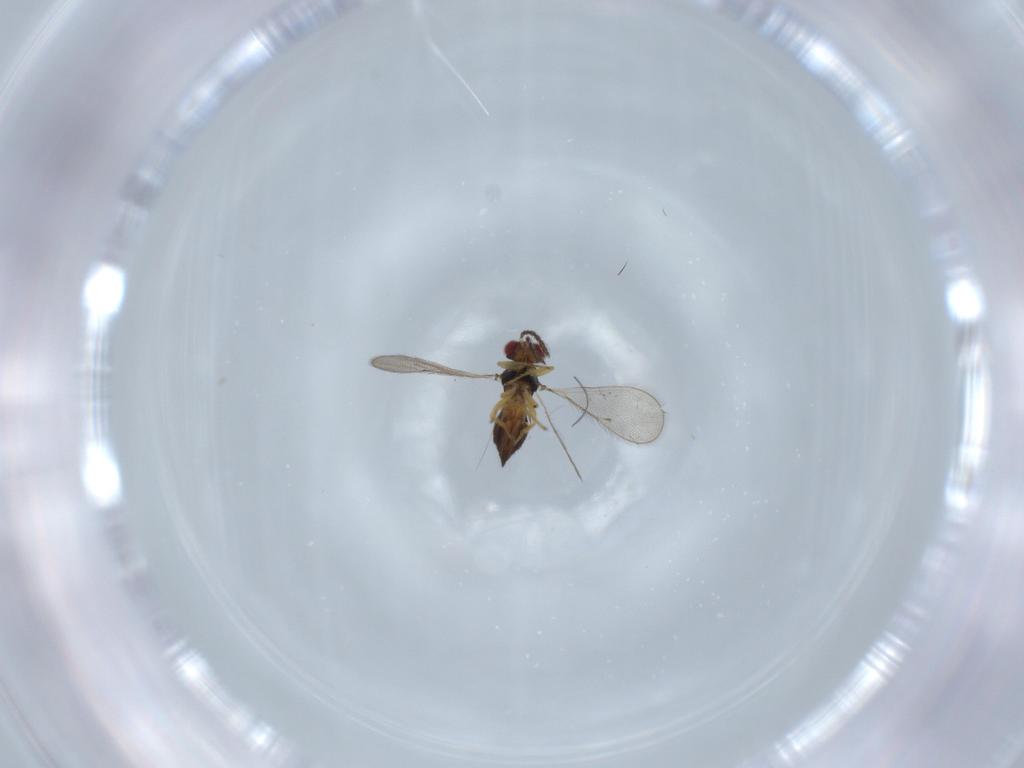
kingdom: Animalia
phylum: Arthropoda
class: Insecta
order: Hymenoptera
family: Eulophidae
